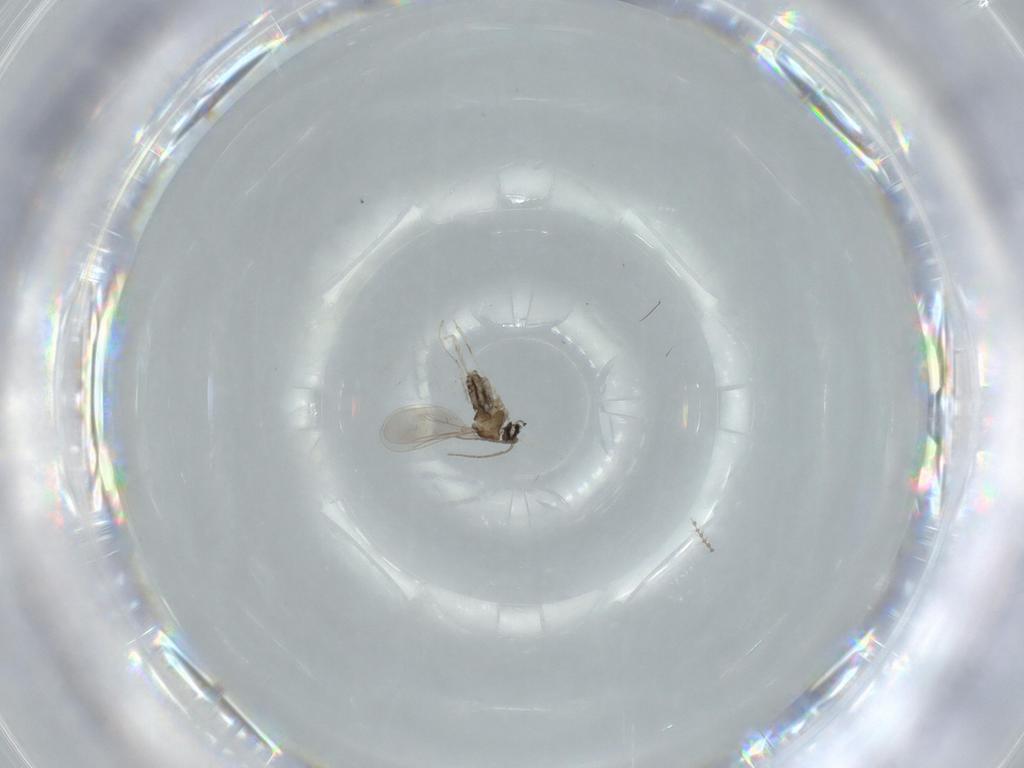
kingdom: Animalia
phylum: Arthropoda
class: Insecta
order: Diptera
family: Cecidomyiidae
